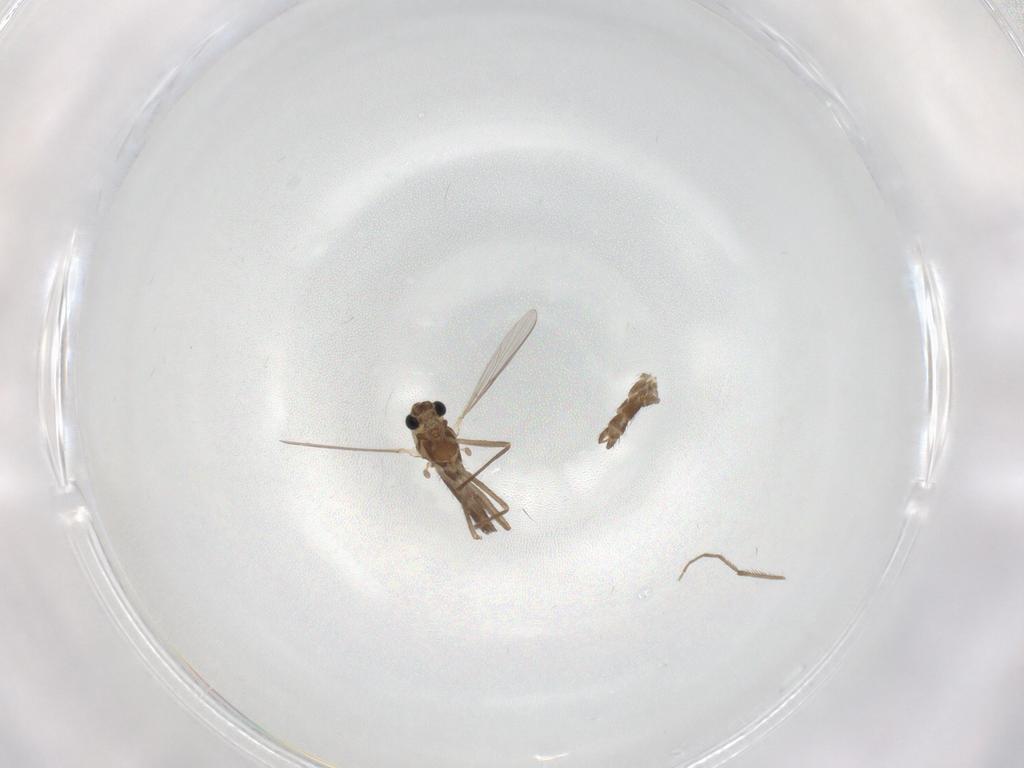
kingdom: Animalia
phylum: Arthropoda
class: Insecta
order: Diptera
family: Chironomidae
